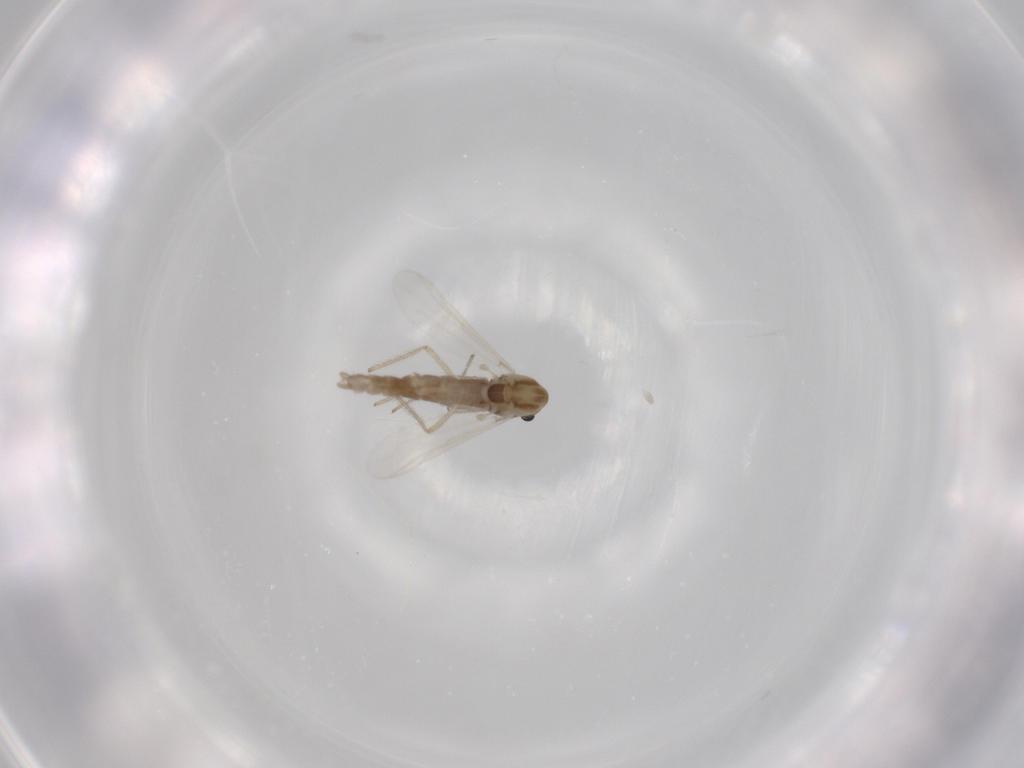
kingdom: Animalia
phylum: Arthropoda
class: Insecta
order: Diptera
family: Chironomidae
